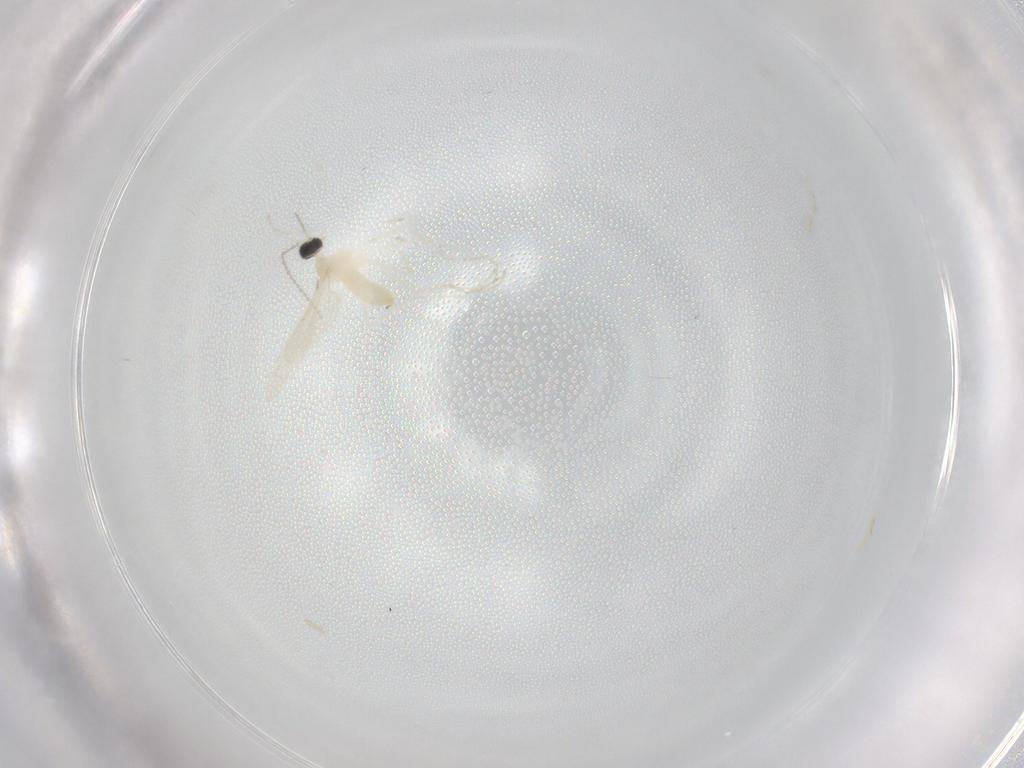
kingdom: Animalia
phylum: Arthropoda
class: Insecta
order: Diptera
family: Cecidomyiidae
